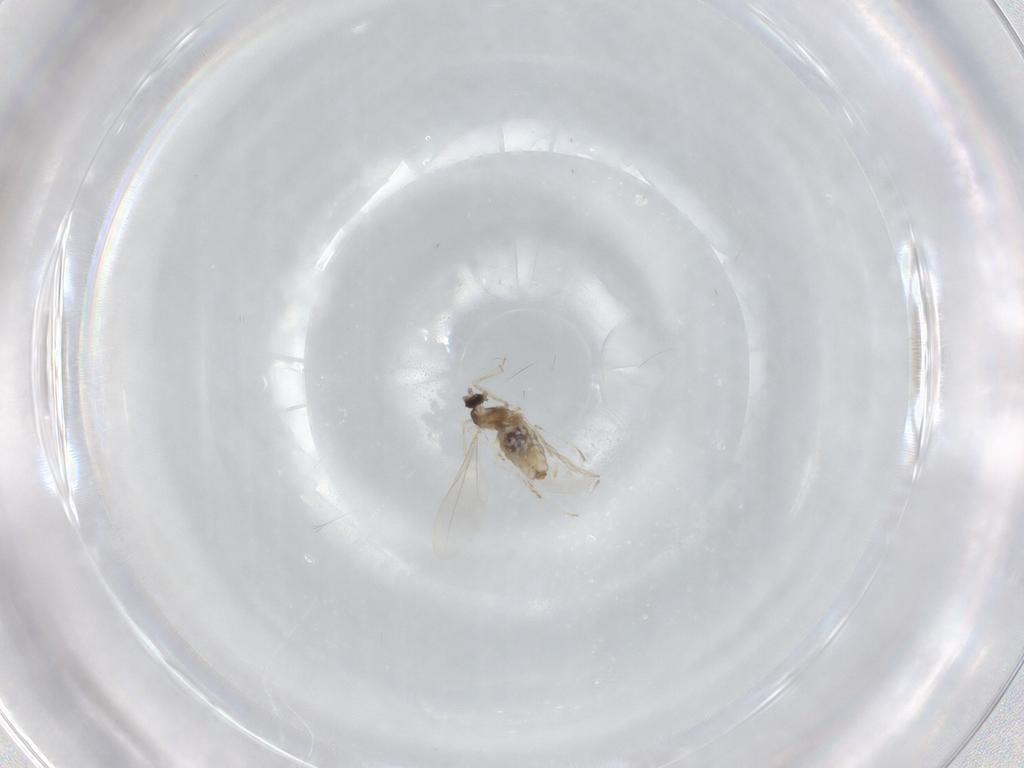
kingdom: Animalia
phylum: Arthropoda
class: Insecta
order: Diptera
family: Cecidomyiidae
